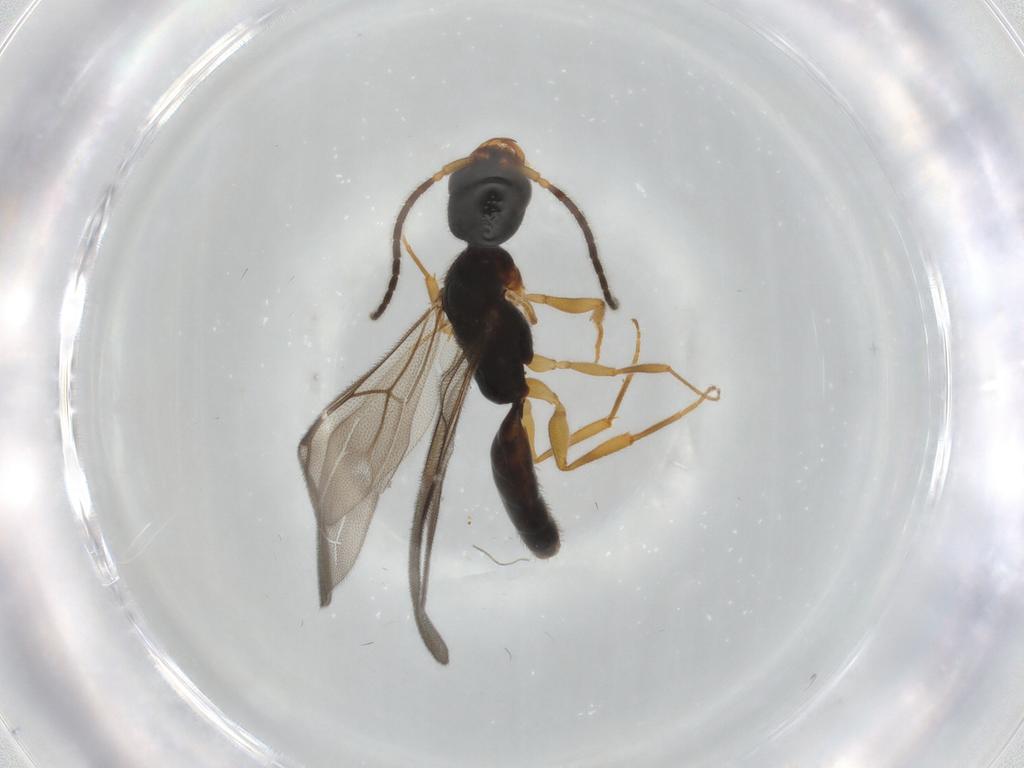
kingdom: Animalia
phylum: Arthropoda
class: Insecta
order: Hymenoptera
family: Bethylidae
